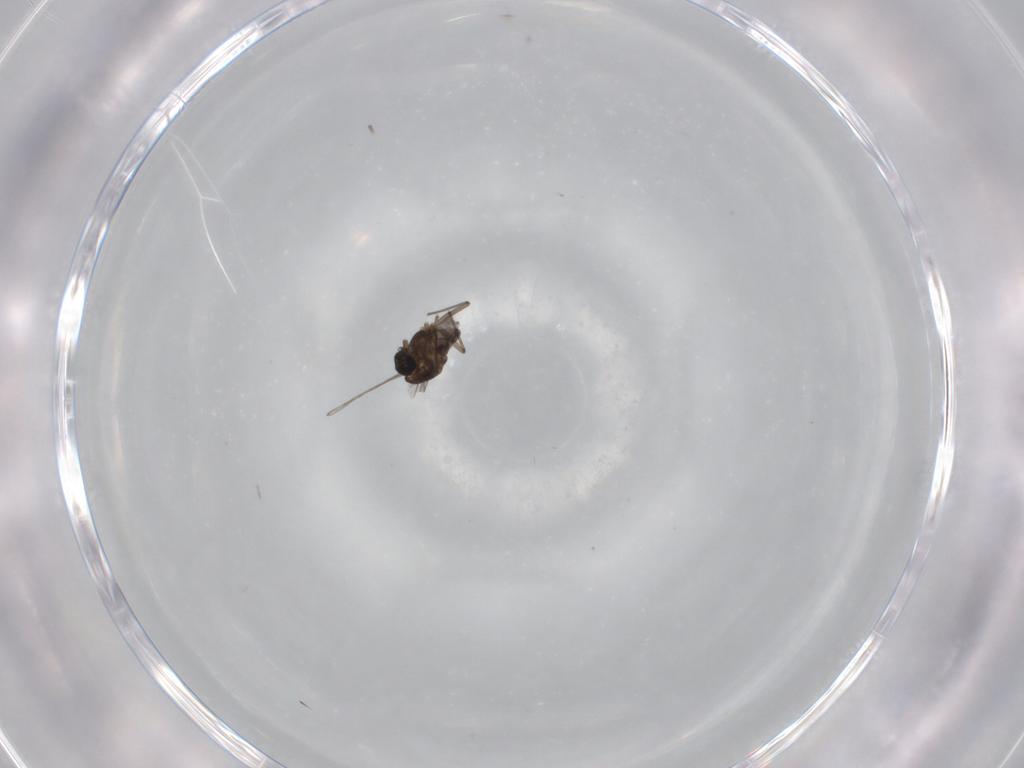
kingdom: Animalia
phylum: Arthropoda
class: Insecta
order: Diptera
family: Chironomidae
